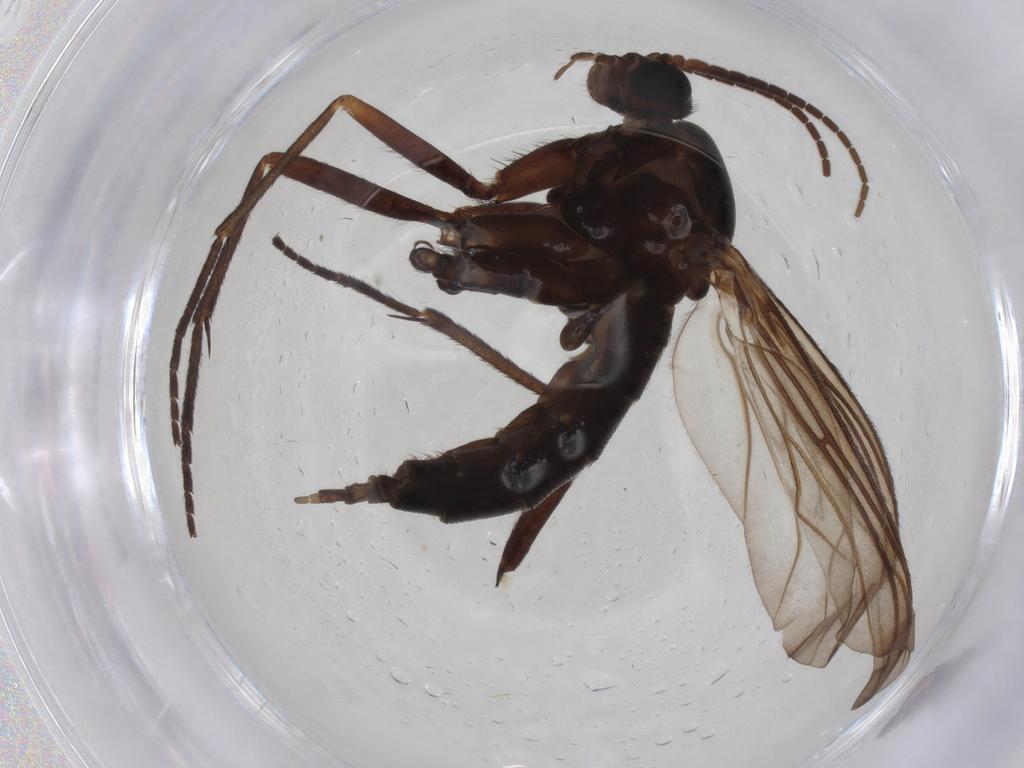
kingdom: Animalia
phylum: Arthropoda
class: Insecta
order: Diptera
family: Sciaridae
